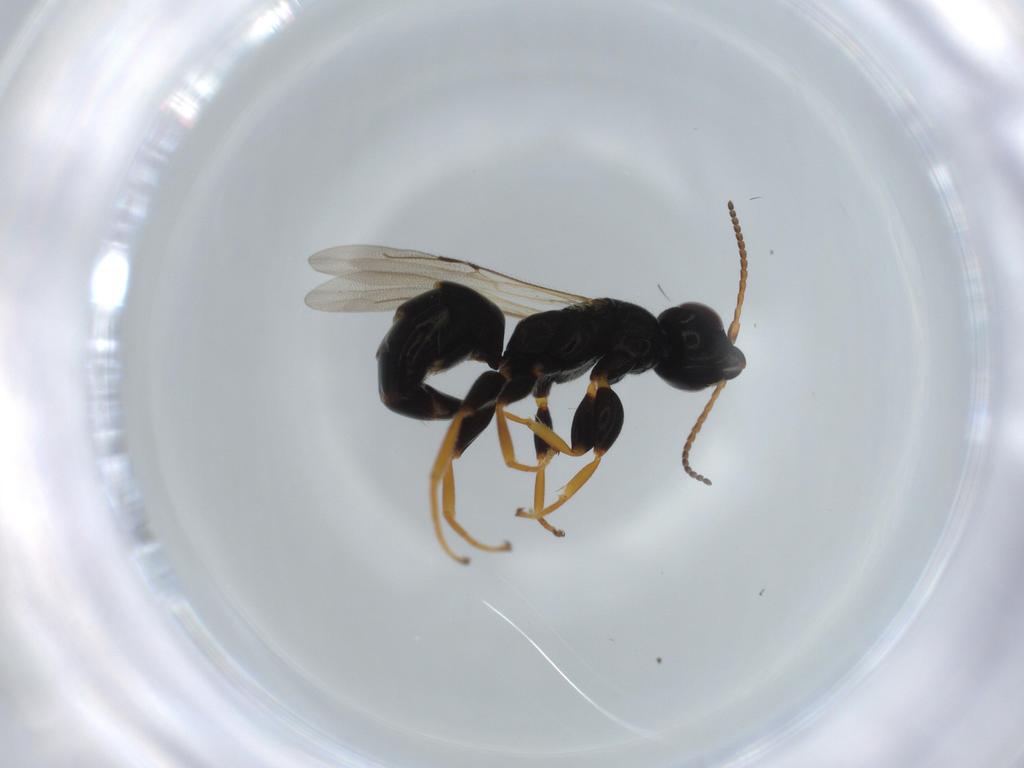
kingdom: Animalia
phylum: Arthropoda
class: Insecta
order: Hymenoptera
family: Bethylidae
